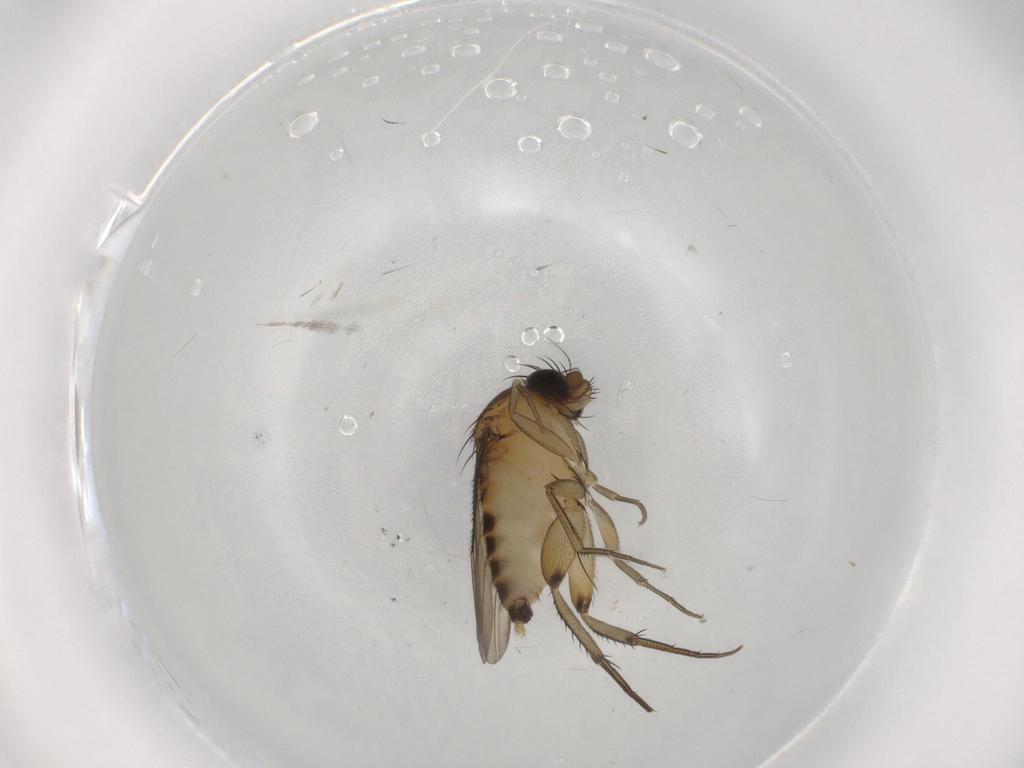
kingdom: Animalia
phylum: Arthropoda
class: Insecta
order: Diptera
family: Phoridae
